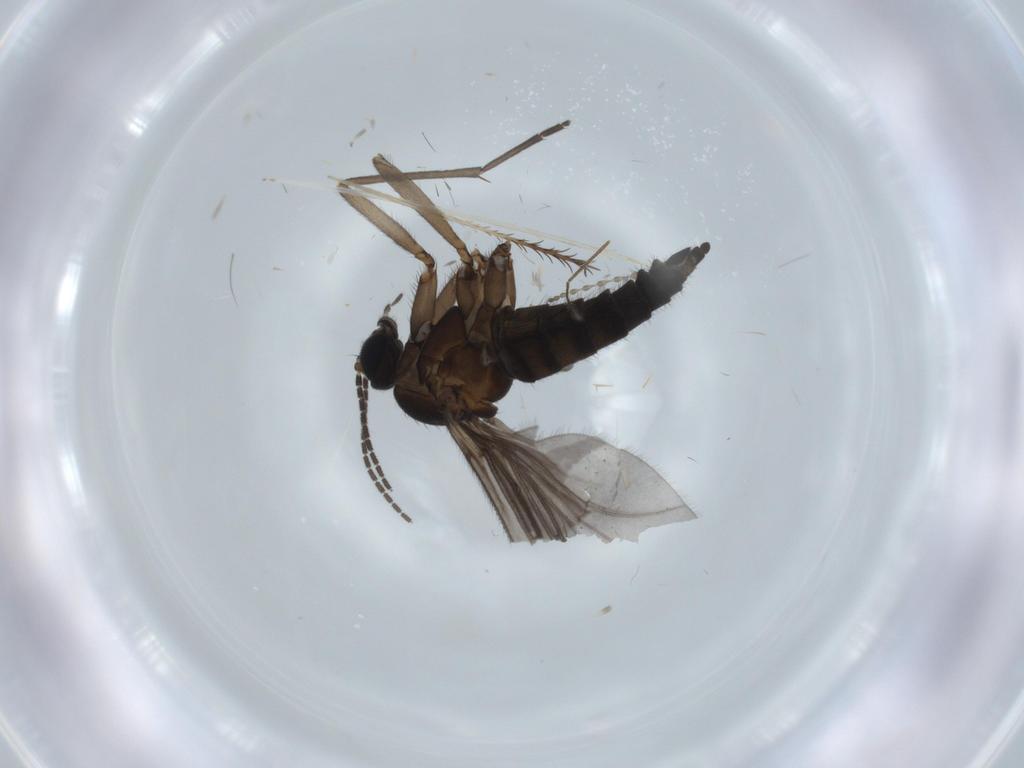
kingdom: Animalia
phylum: Arthropoda
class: Insecta
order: Diptera
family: Sciaridae
